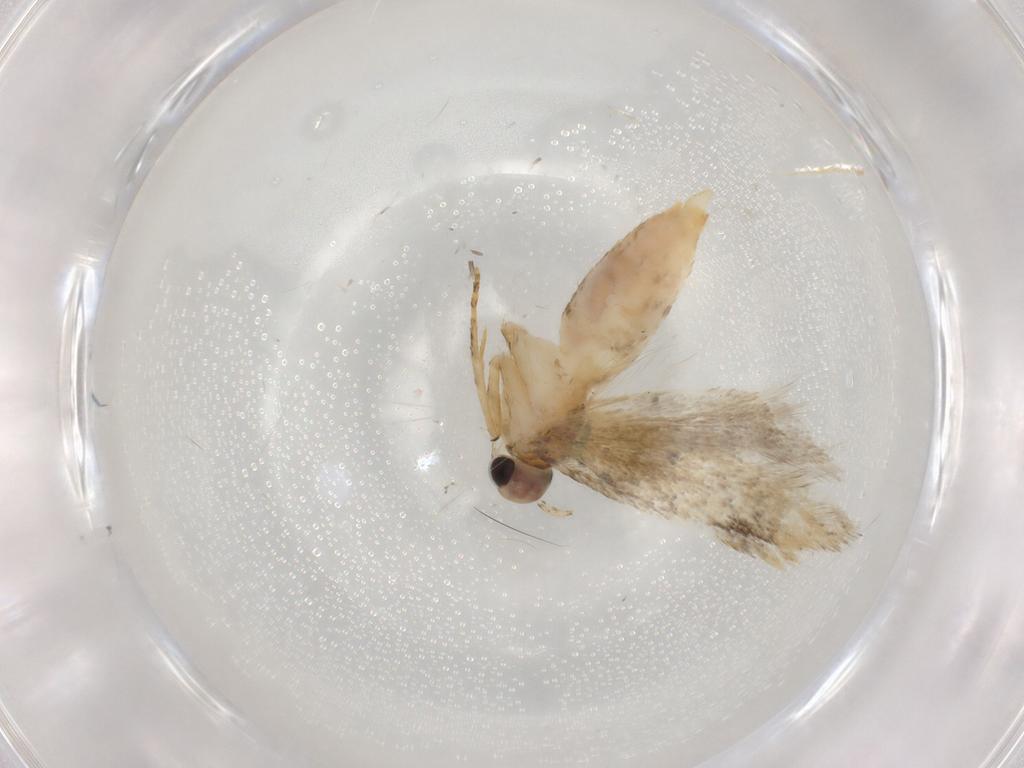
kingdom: Animalia
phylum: Arthropoda
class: Insecta
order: Lepidoptera
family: Noctuidae
